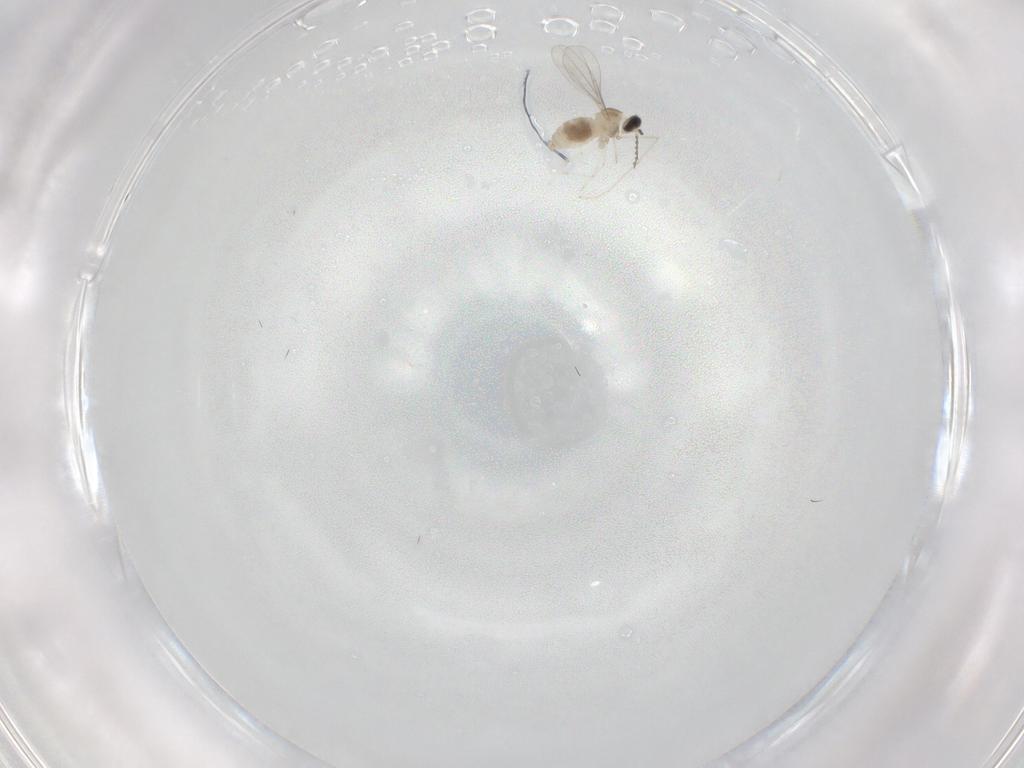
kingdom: Animalia
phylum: Arthropoda
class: Insecta
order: Diptera
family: Cecidomyiidae
